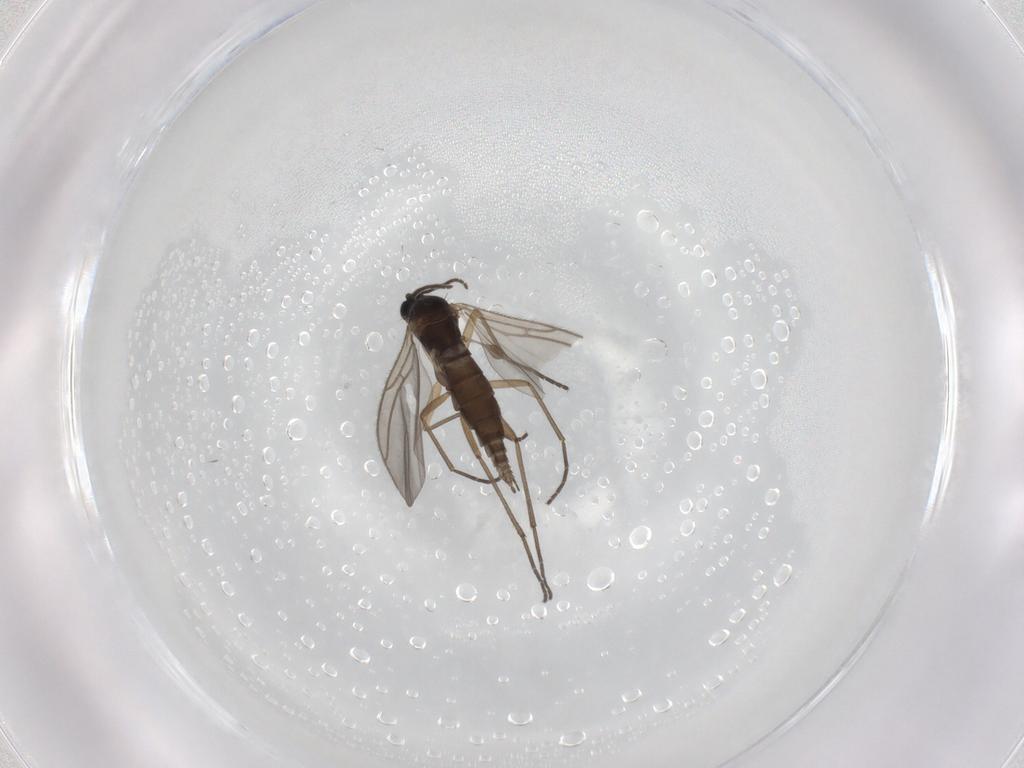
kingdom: Animalia
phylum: Arthropoda
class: Insecta
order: Diptera
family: Sciaridae
